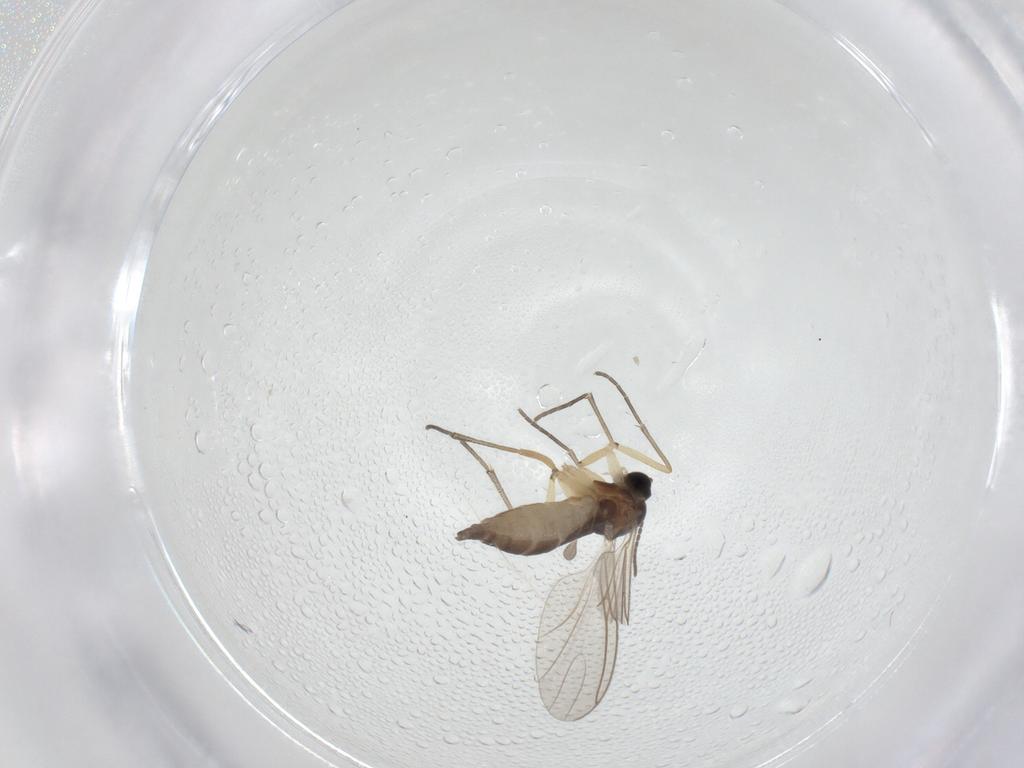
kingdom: Animalia
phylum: Arthropoda
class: Insecta
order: Diptera
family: Sciaridae
